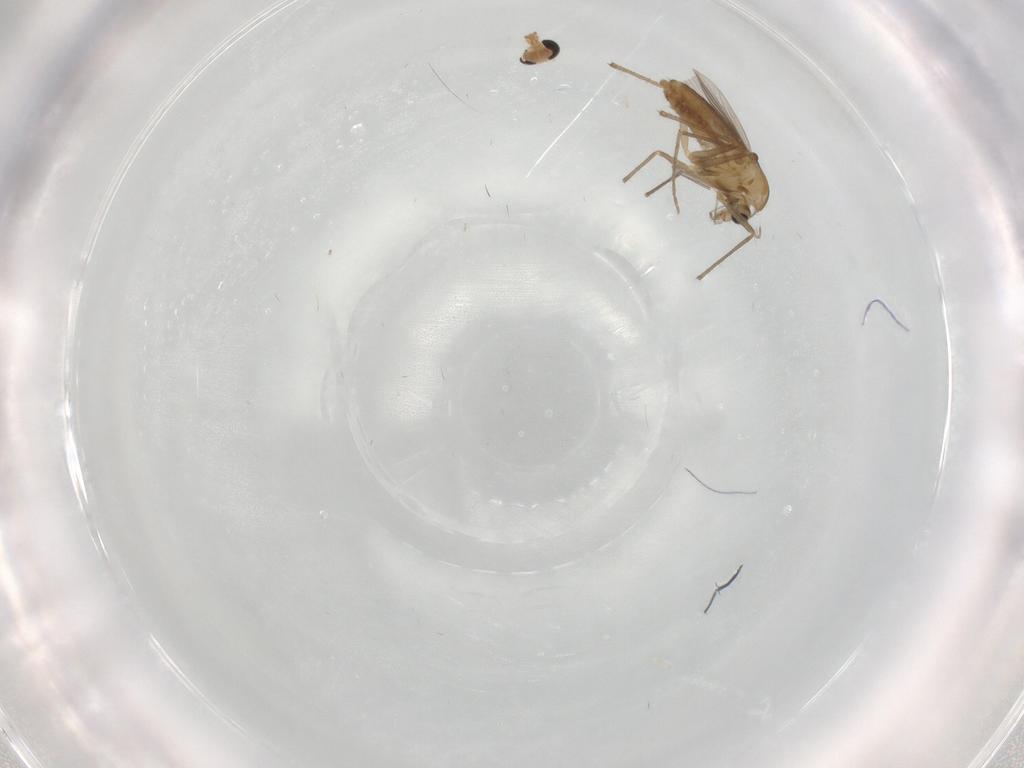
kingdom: Animalia
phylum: Arthropoda
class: Insecta
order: Diptera
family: Chironomidae
